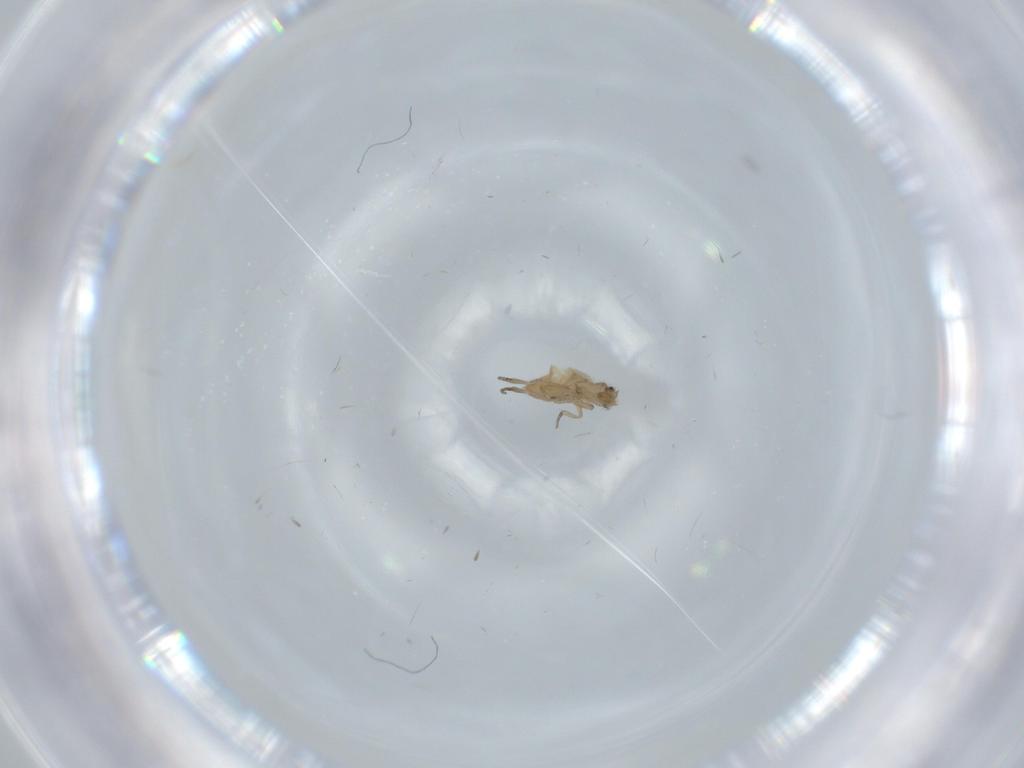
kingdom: Animalia
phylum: Arthropoda
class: Insecta
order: Diptera
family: Phoridae
